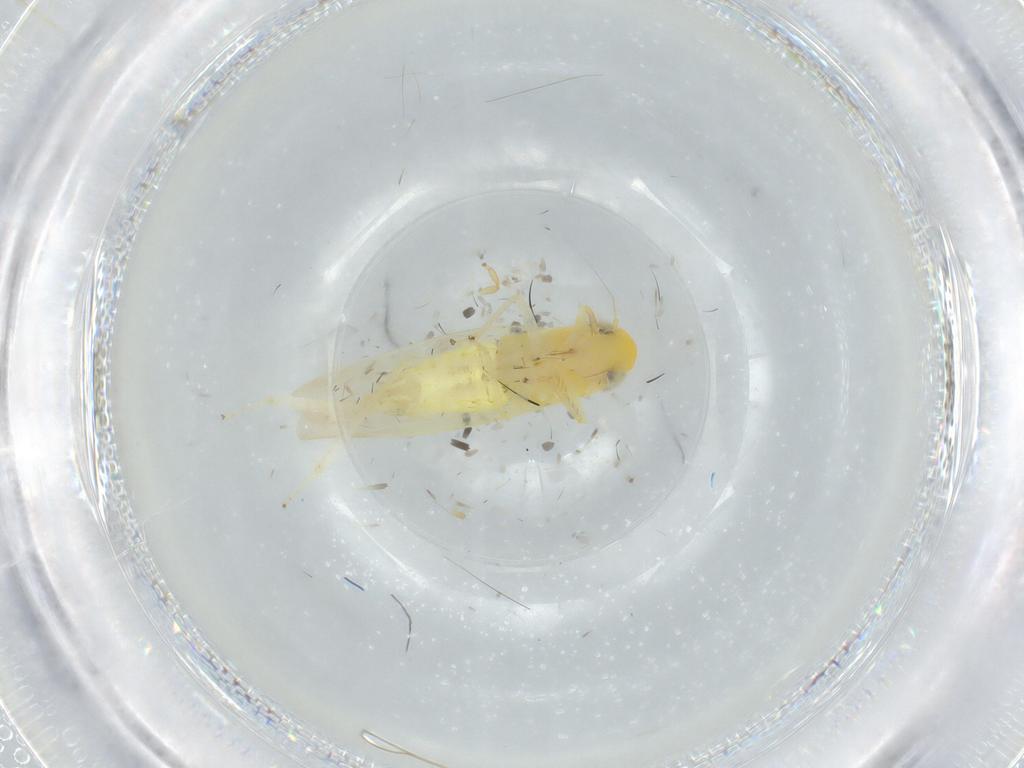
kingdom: Animalia
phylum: Arthropoda
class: Insecta
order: Hemiptera
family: Cicadellidae
